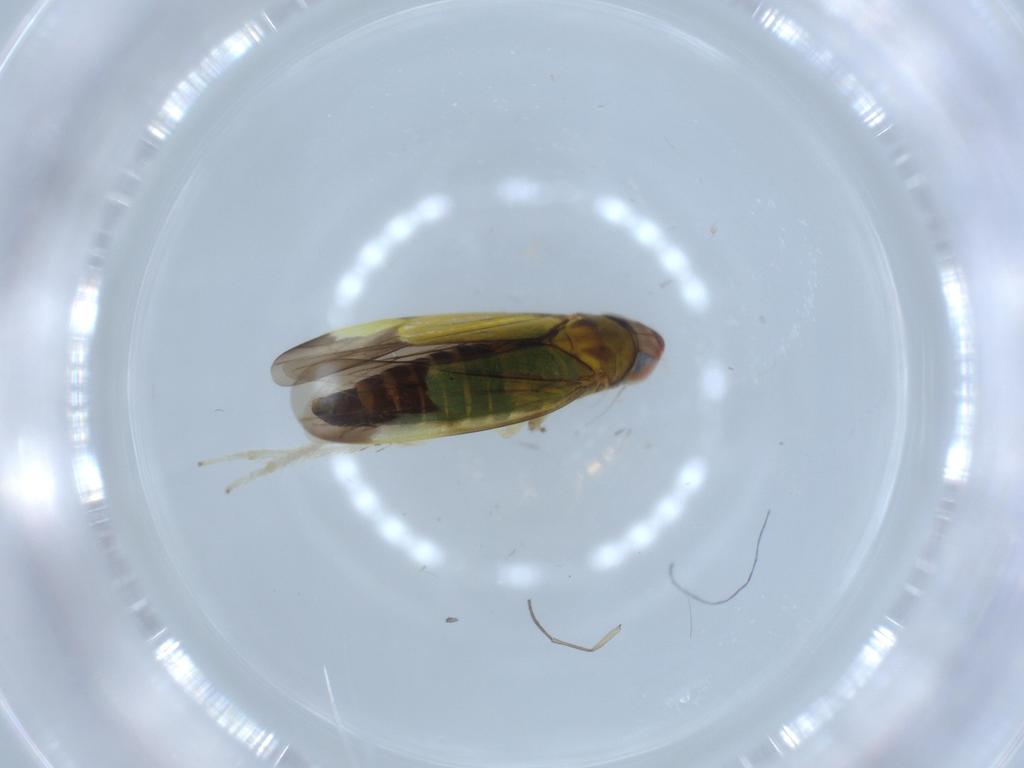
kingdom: Animalia
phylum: Arthropoda
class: Insecta
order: Hemiptera
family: Cicadellidae
